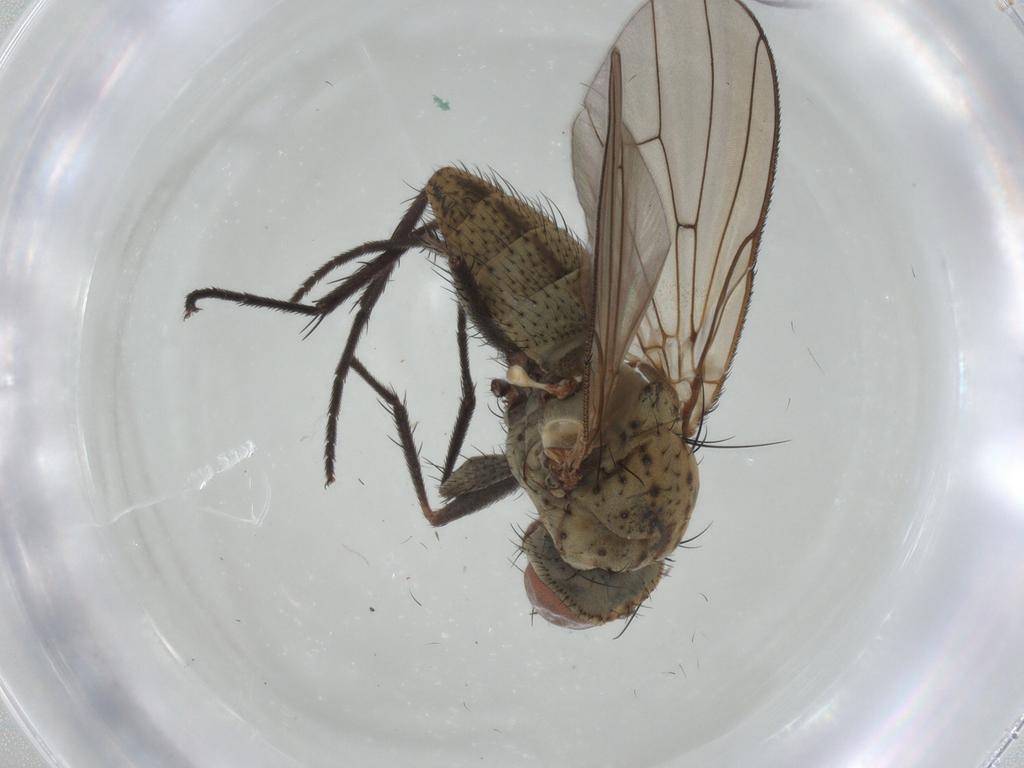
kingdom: Animalia
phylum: Arthropoda
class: Insecta
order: Diptera
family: Anthomyiidae
